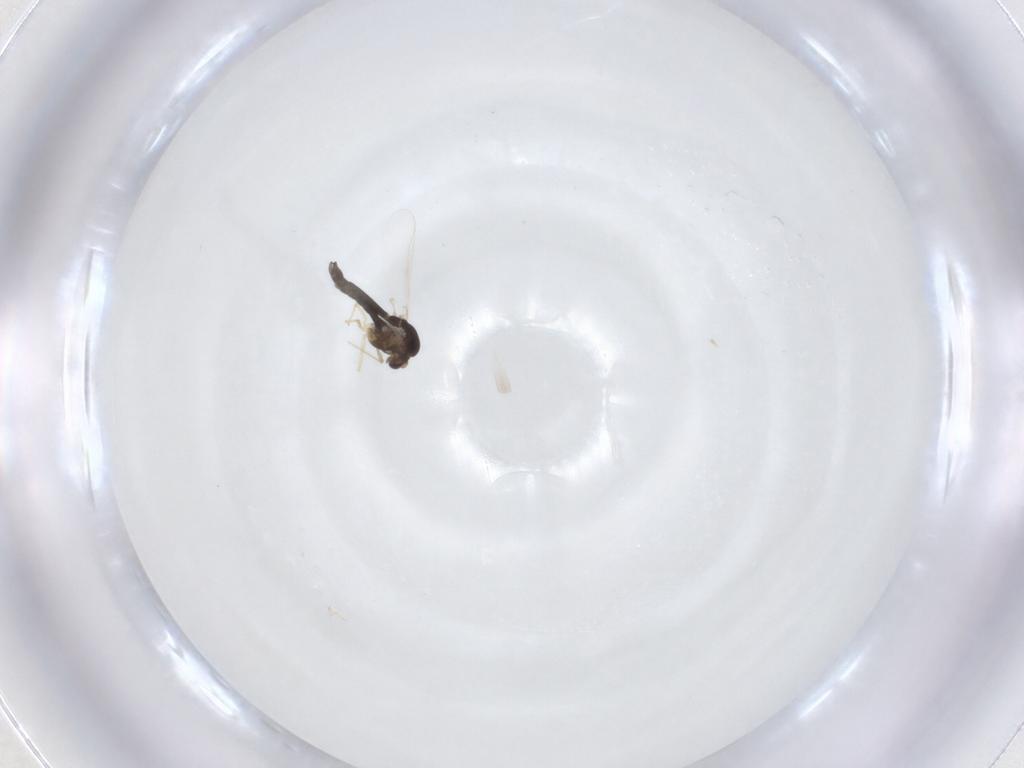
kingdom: Animalia
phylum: Arthropoda
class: Insecta
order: Diptera
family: Chironomidae
